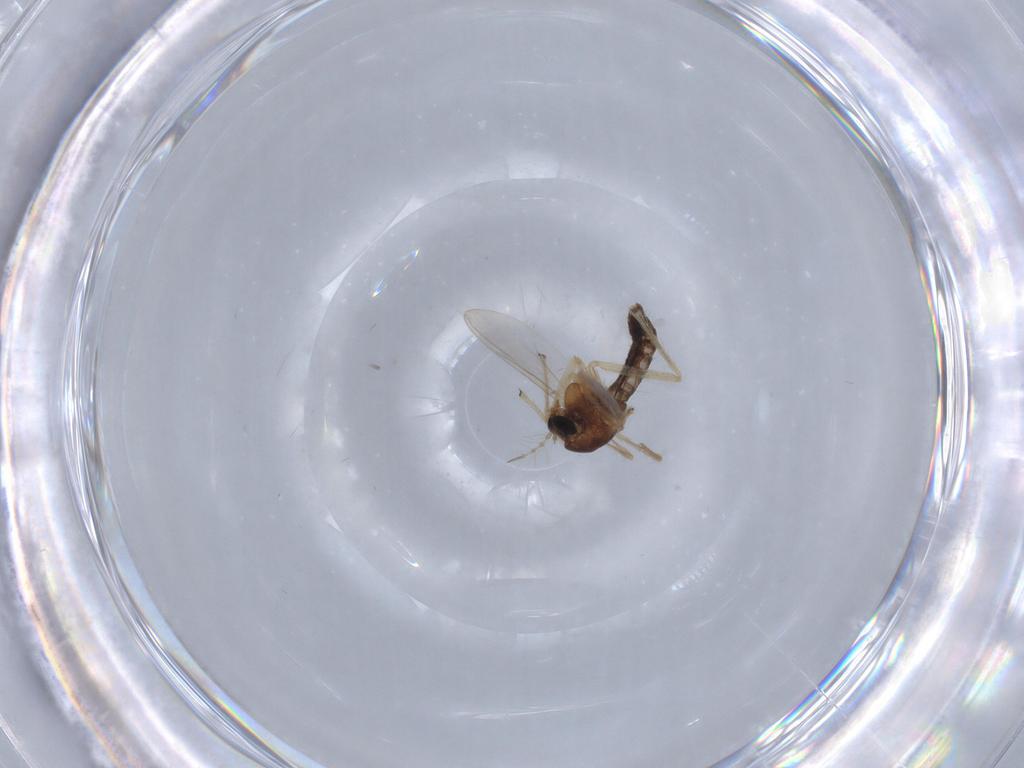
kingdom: Animalia
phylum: Arthropoda
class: Insecta
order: Diptera
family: Chironomidae
